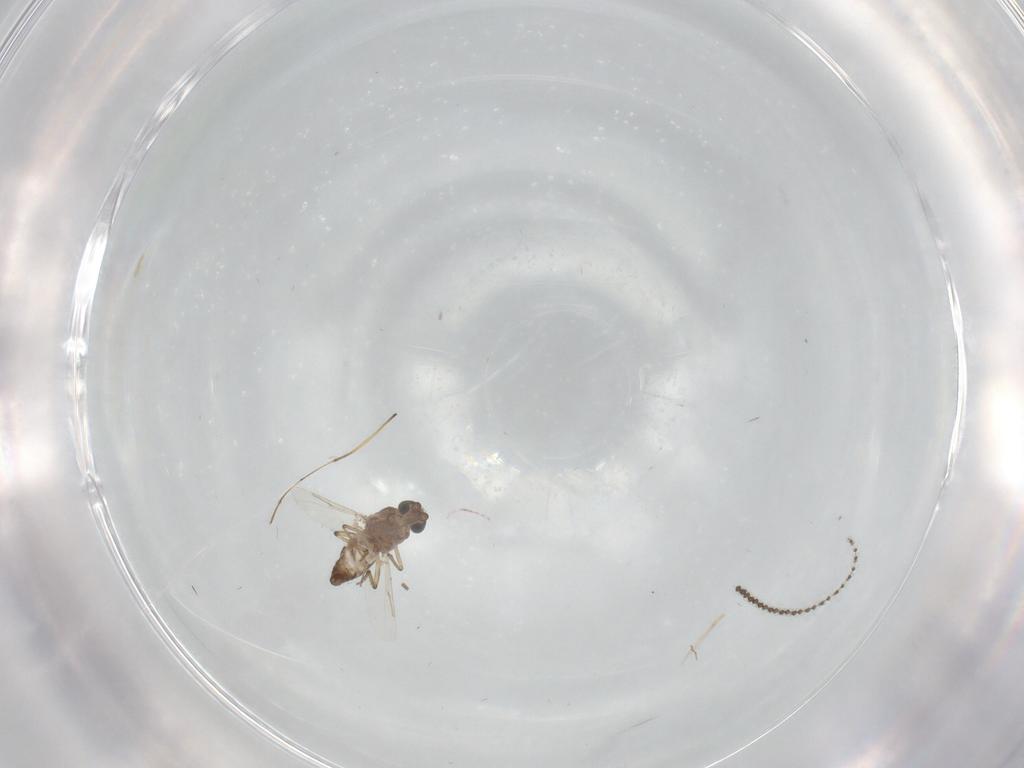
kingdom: Animalia
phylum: Arthropoda
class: Insecta
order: Diptera
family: Ceratopogonidae
